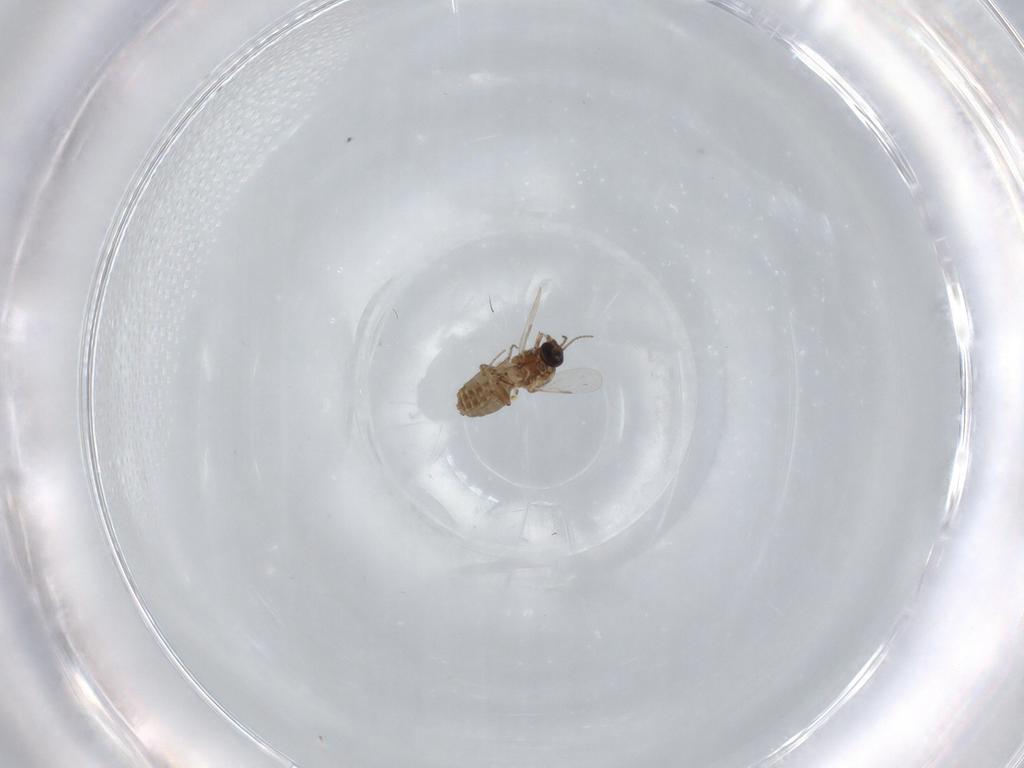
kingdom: Animalia
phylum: Arthropoda
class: Insecta
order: Diptera
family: Ceratopogonidae
